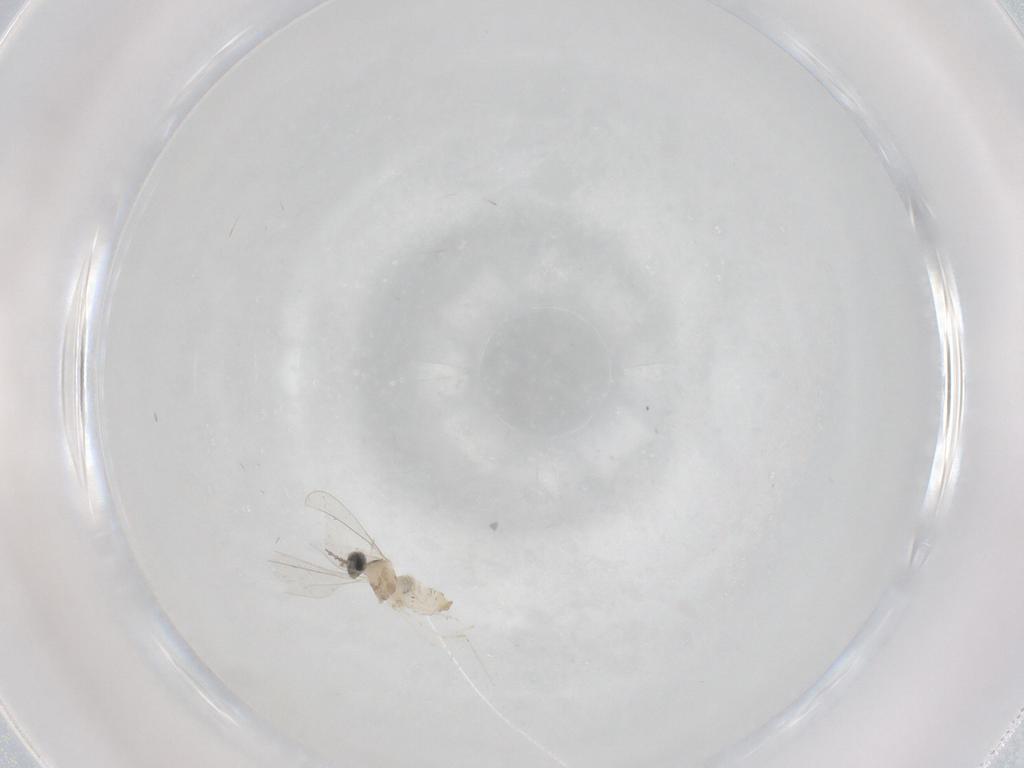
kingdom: Animalia
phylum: Arthropoda
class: Insecta
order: Diptera
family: Cecidomyiidae
